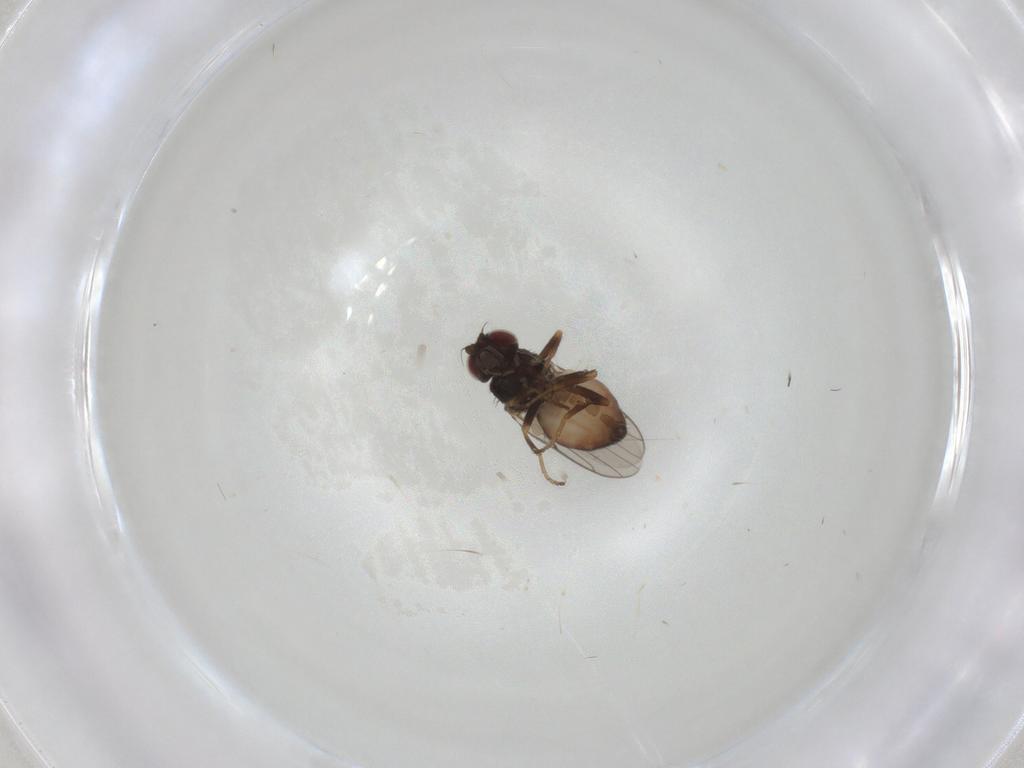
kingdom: Animalia
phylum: Arthropoda
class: Insecta
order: Diptera
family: Chloropidae
